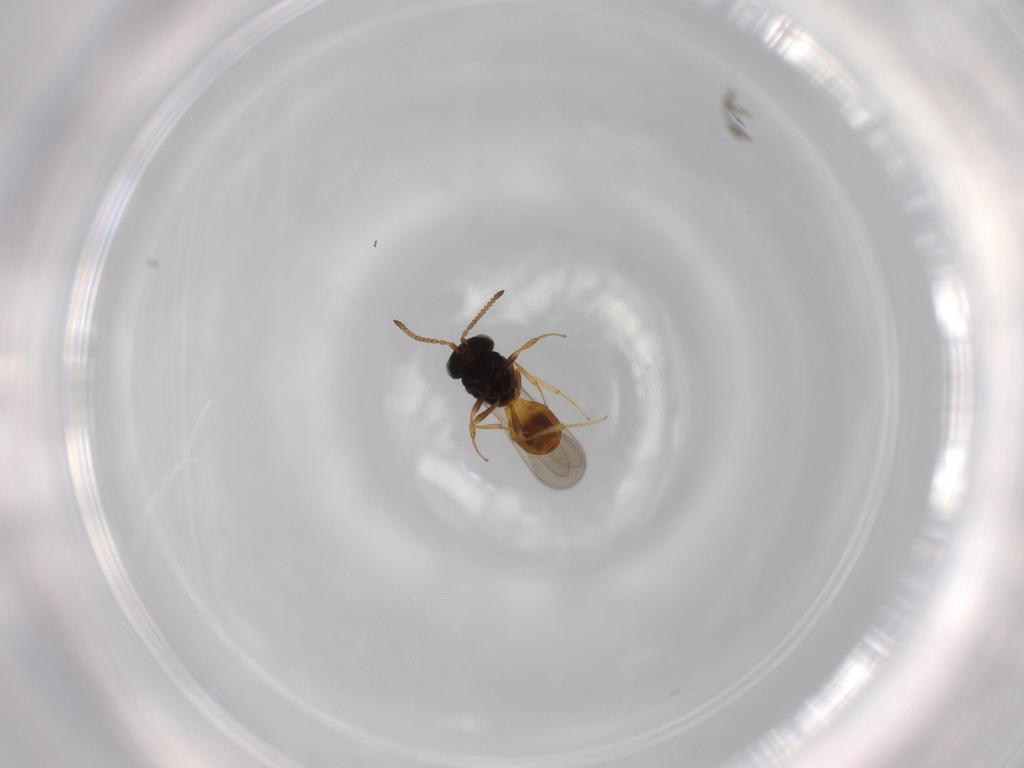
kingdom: Animalia
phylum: Arthropoda
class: Insecta
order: Hymenoptera
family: Scelionidae
